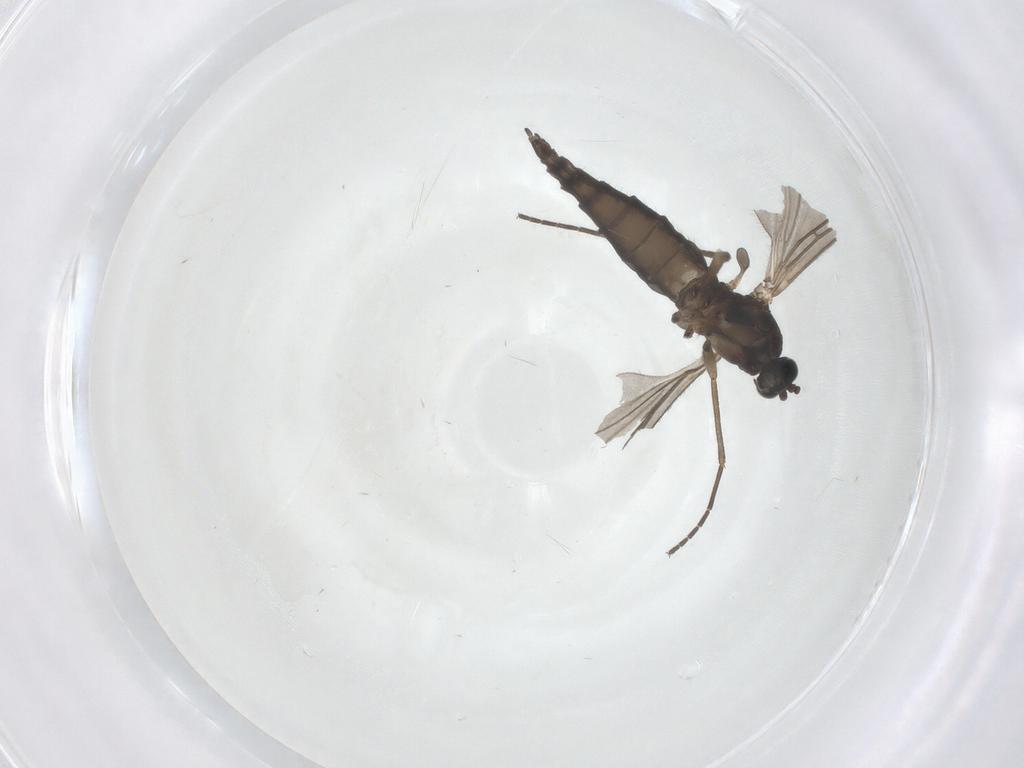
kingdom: Animalia
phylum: Arthropoda
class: Insecta
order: Diptera
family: Sciaridae
